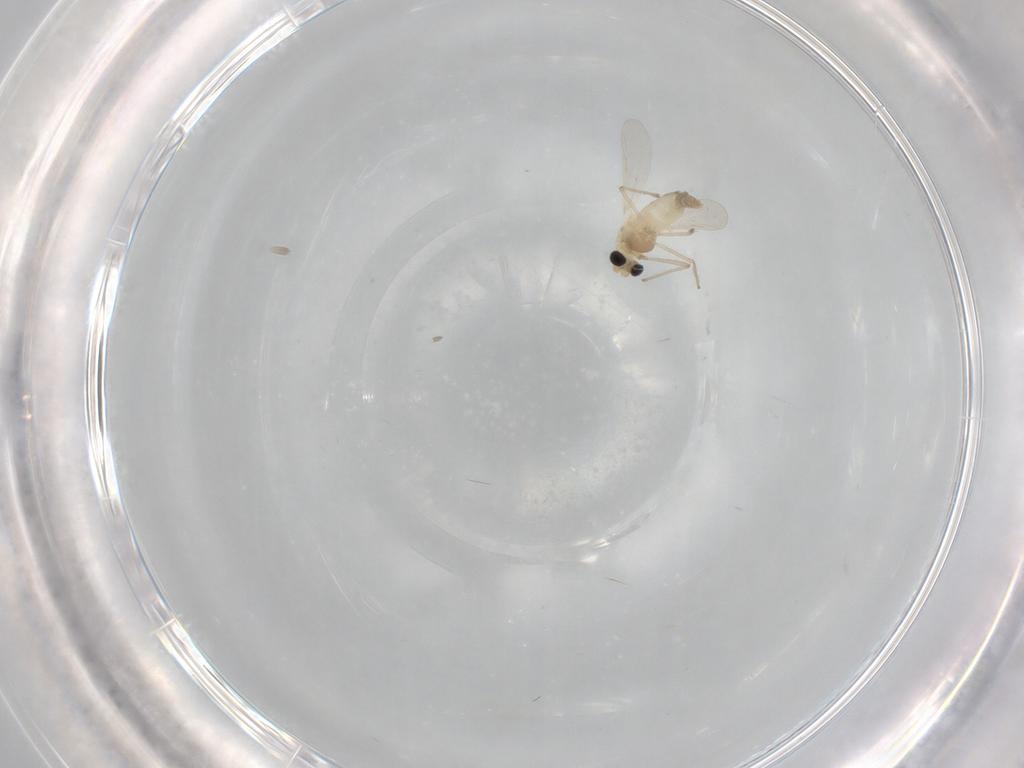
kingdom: Animalia
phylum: Arthropoda
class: Insecta
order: Diptera
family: Chironomidae
